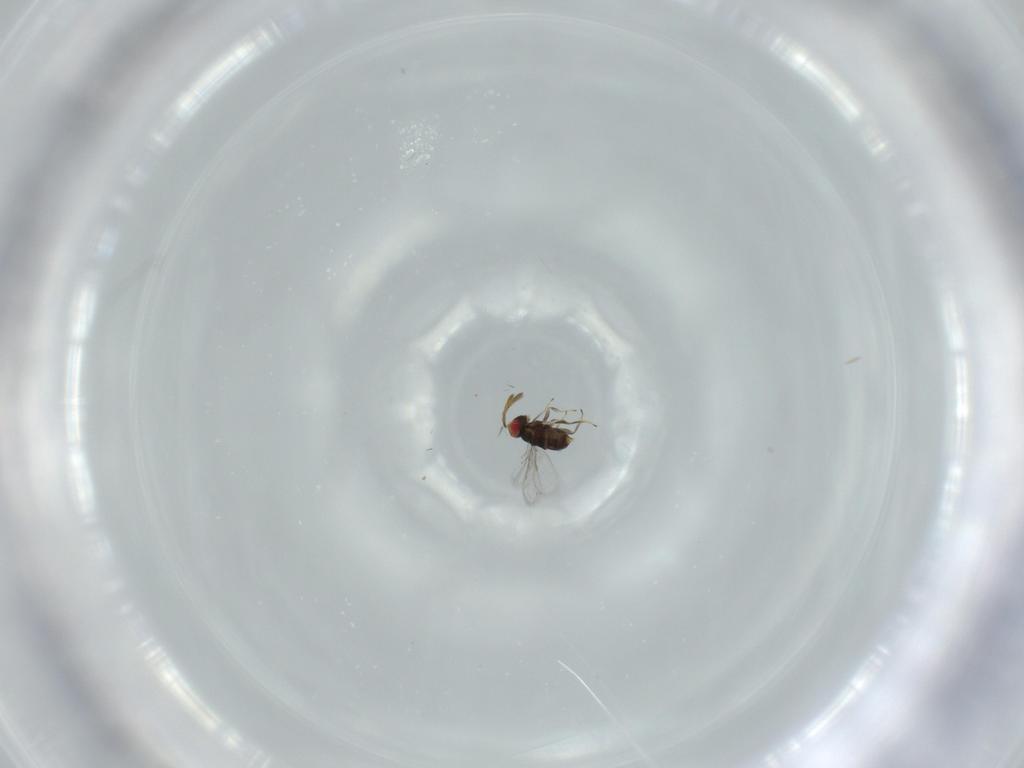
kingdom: Animalia
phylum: Arthropoda
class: Insecta
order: Hymenoptera
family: Azotidae
